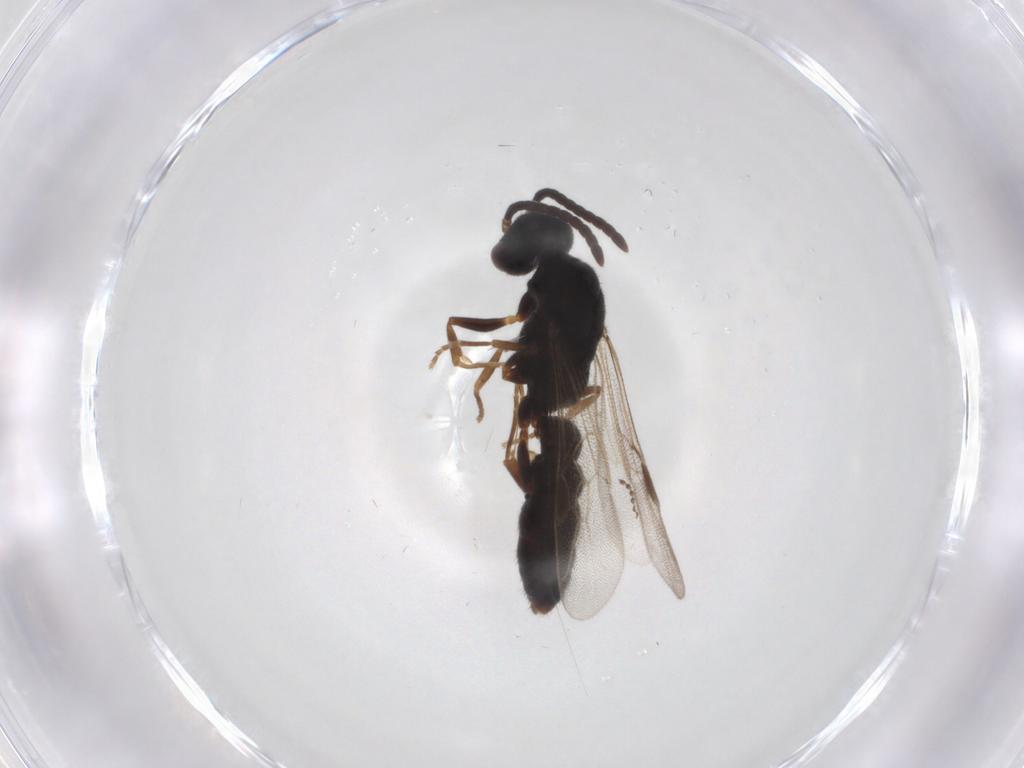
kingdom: Animalia
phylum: Arthropoda
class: Insecta
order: Hymenoptera
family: Formicidae
